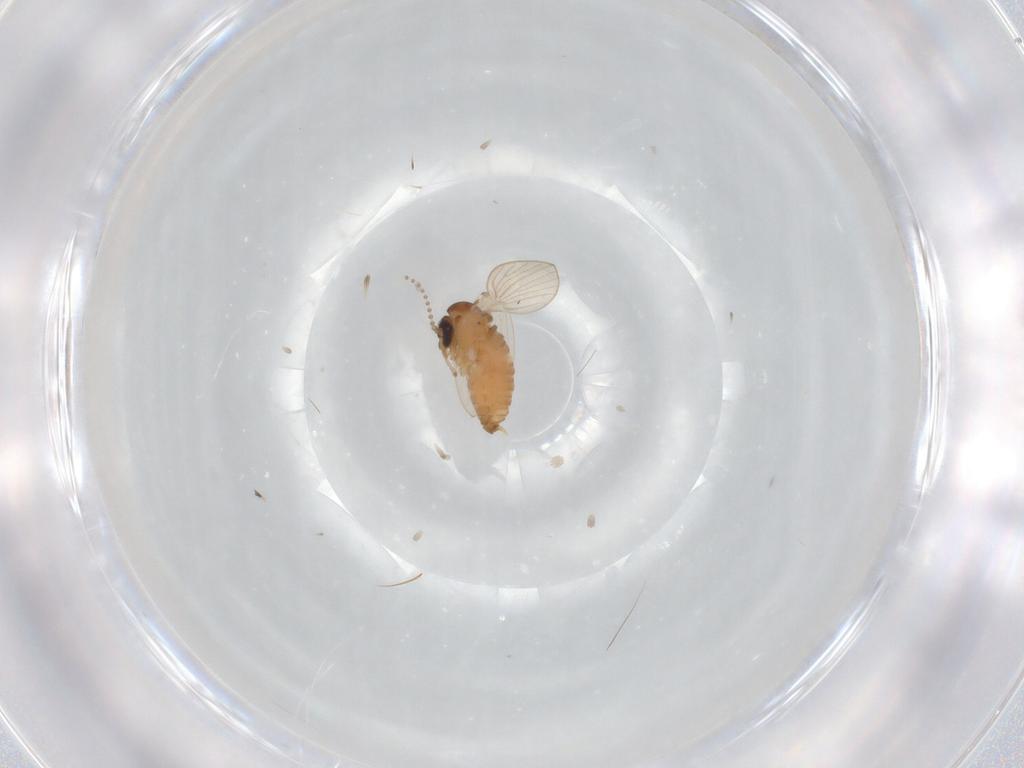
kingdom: Animalia
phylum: Arthropoda
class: Insecta
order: Diptera
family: Psychodidae
